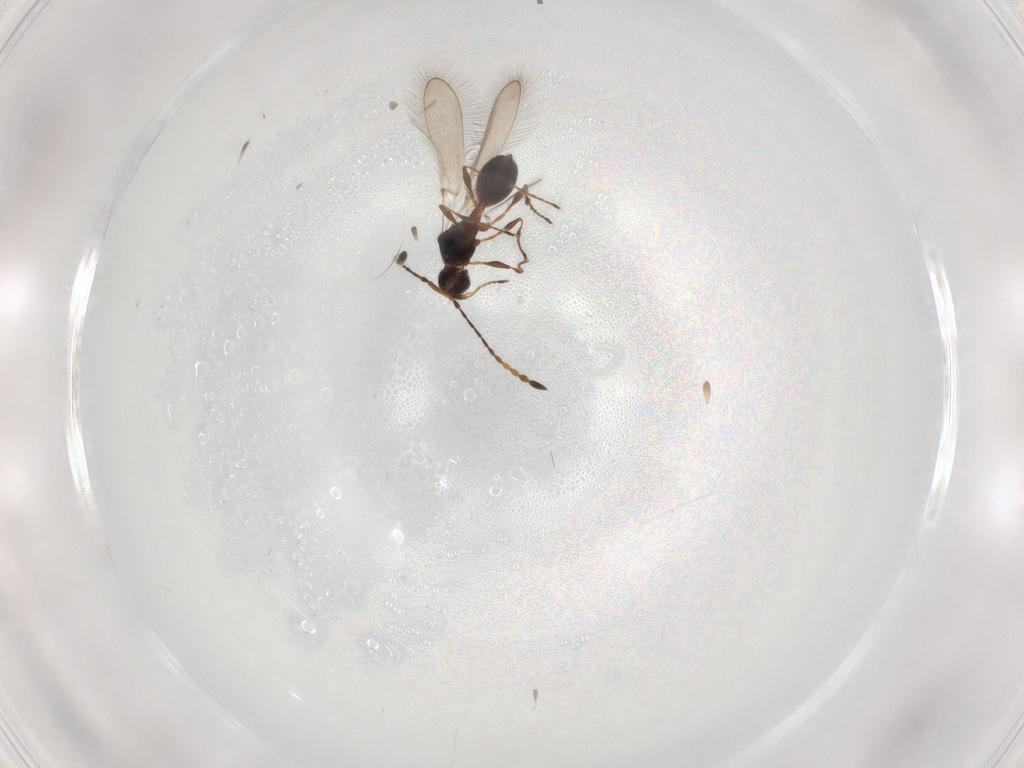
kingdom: Animalia
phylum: Arthropoda
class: Insecta
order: Hymenoptera
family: Diapriidae
